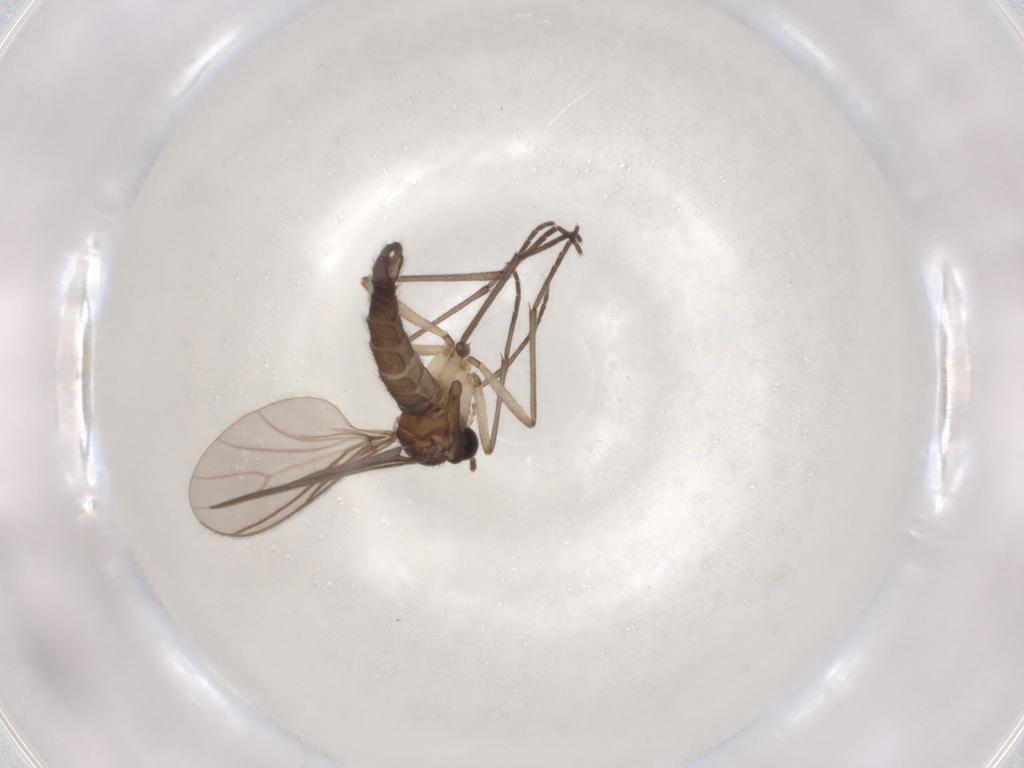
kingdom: Animalia
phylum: Arthropoda
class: Insecta
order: Diptera
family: Sciaridae
